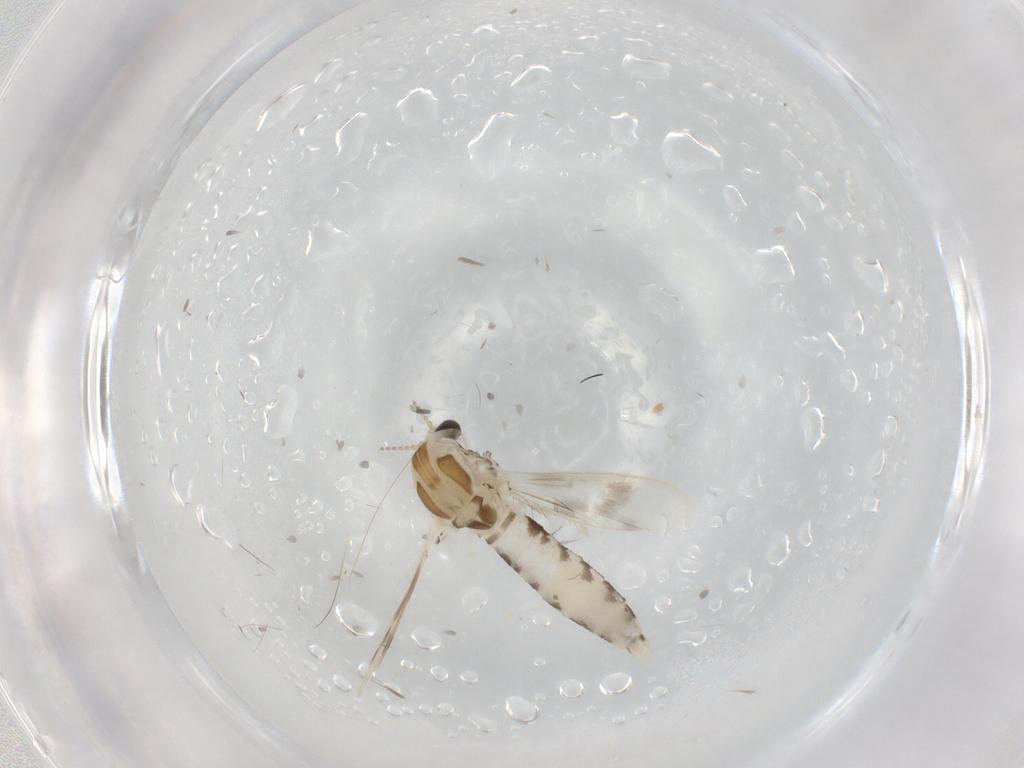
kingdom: Animalia
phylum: Arthropoda
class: Insecta
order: Diptera
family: Corethrellidae
